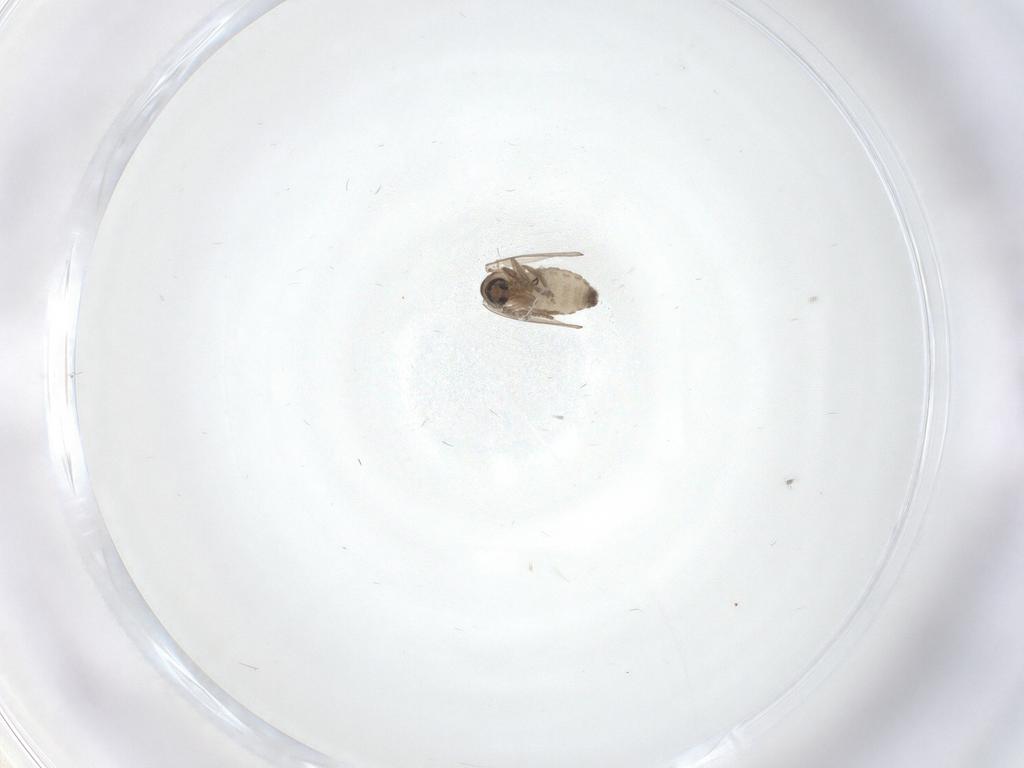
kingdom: Animalia
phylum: Arthropoda
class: Insecta
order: Diptera
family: Psychodidae
